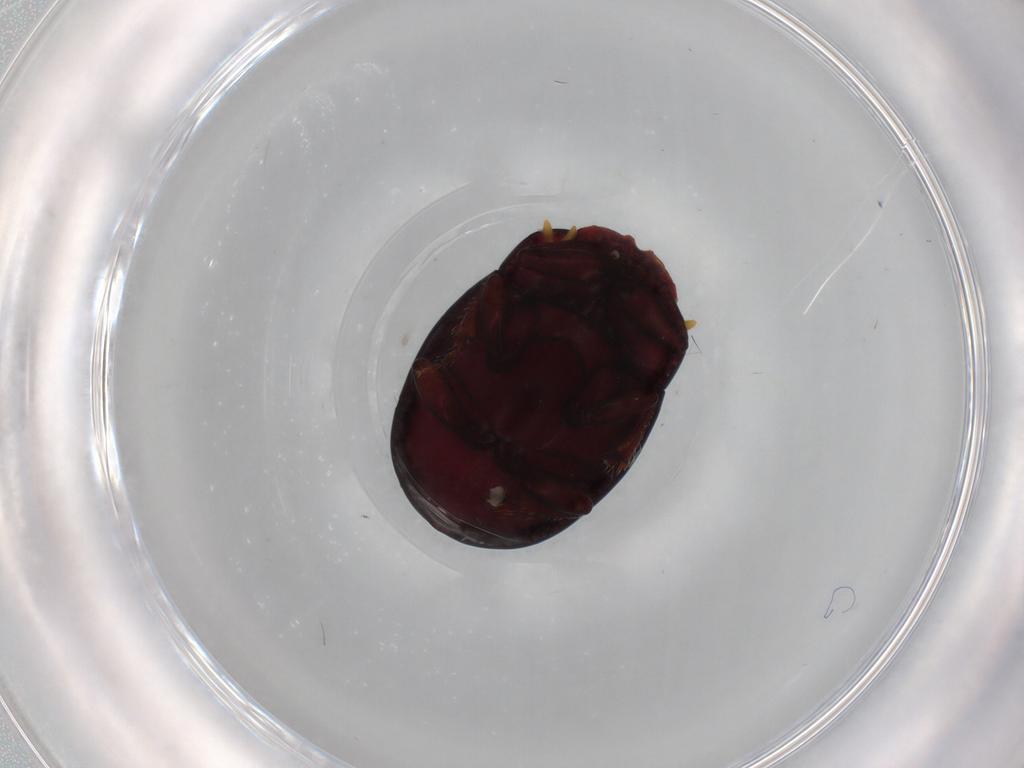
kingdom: Animalia
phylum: Arthropoda
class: Insecta
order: Coleoptera
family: Scarabaeidae
